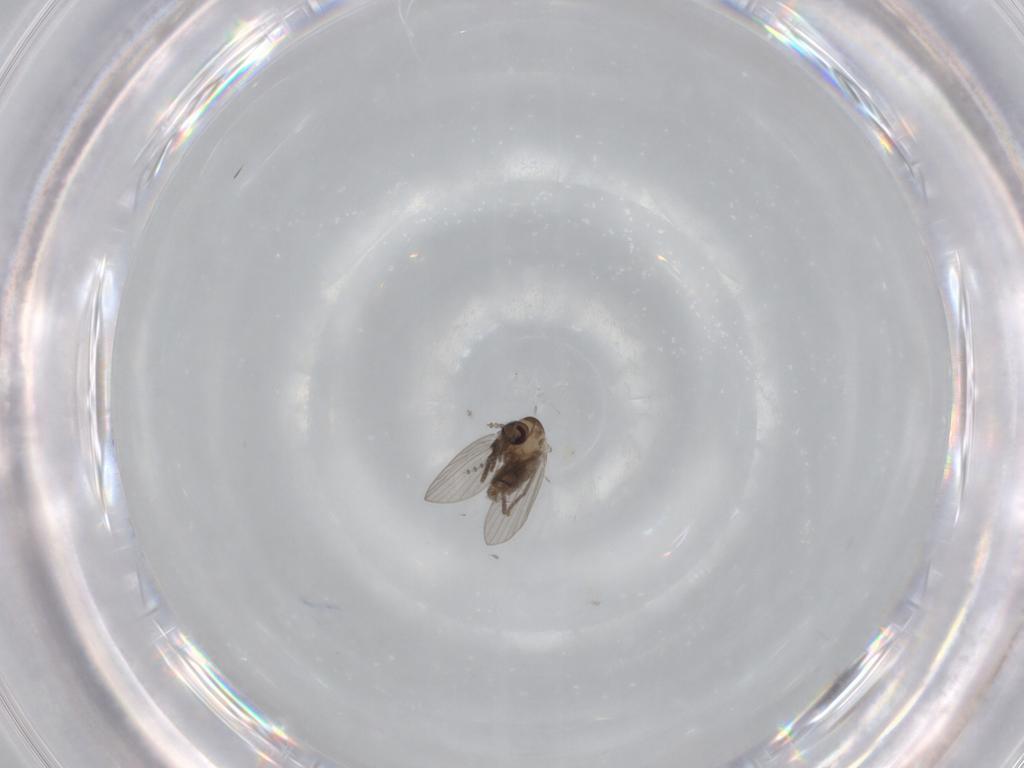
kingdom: Animalia
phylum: Arthropoda
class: Insecta
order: Diptera
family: Psychodidae
